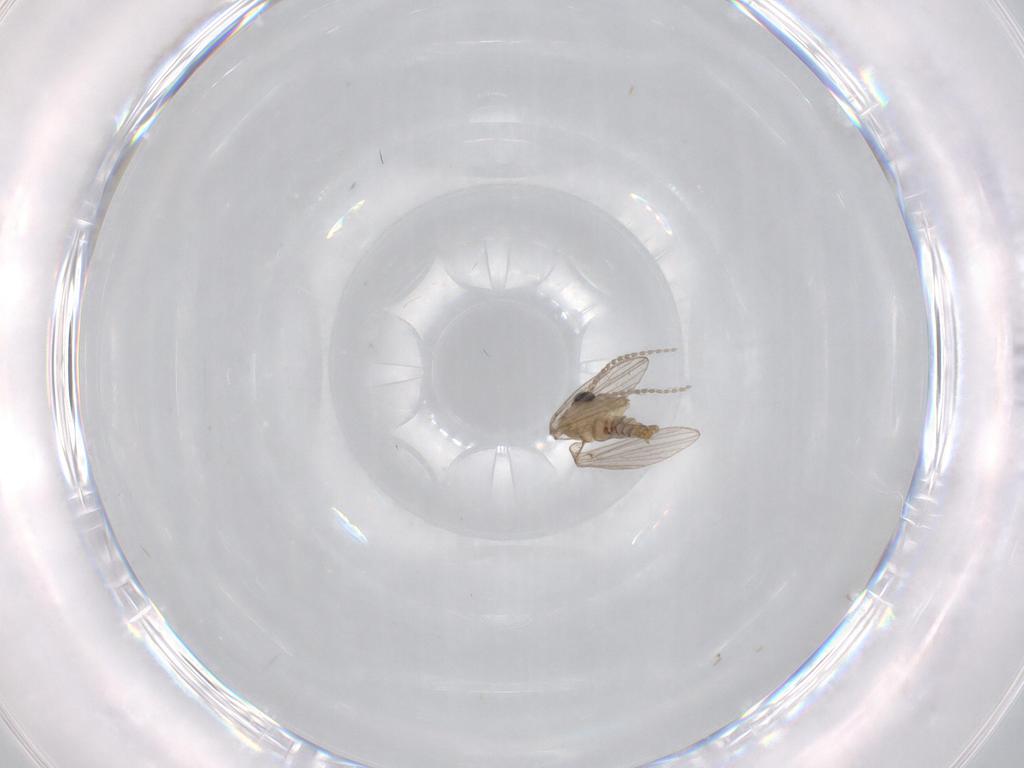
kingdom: Animalia
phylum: Arthropoda
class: Insecta
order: Diptera
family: Psychodidae
